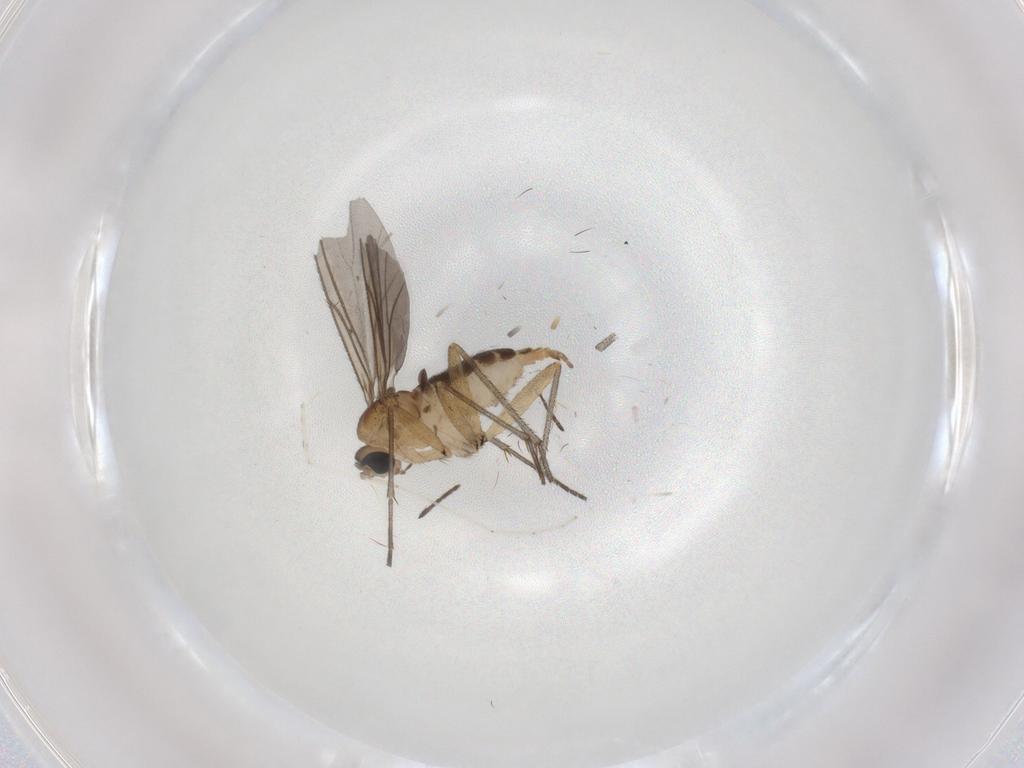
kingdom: Animalia
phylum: Arthropoda
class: Insecta
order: Diptera
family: Sciaridae
